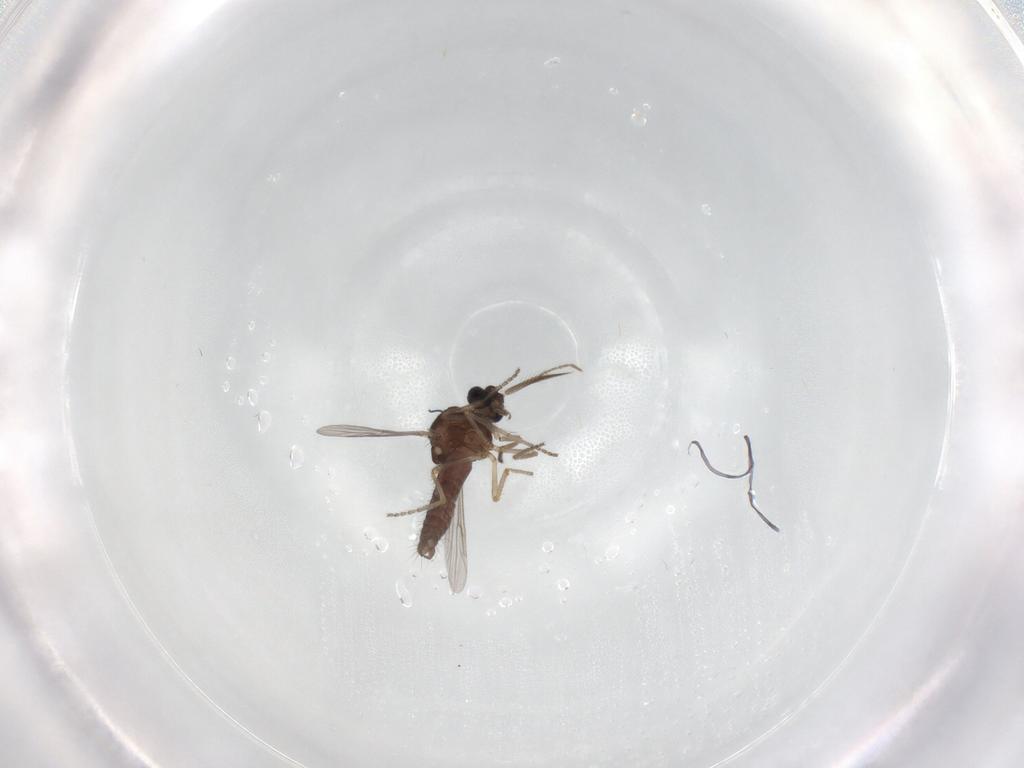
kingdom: Animalia
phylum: Arthropoda
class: Insecta
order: Diptera
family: Ceratopogonidae
